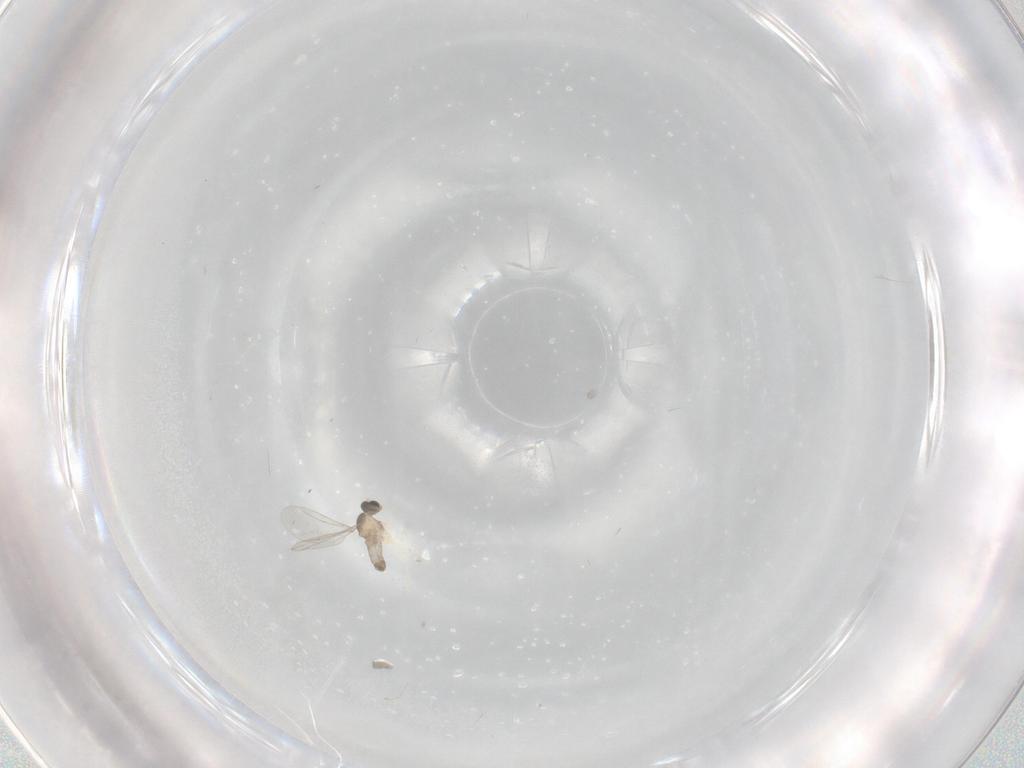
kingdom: Animalia
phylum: Arthropoda
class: Insecta
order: Diptera
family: Cecidomyiidae
